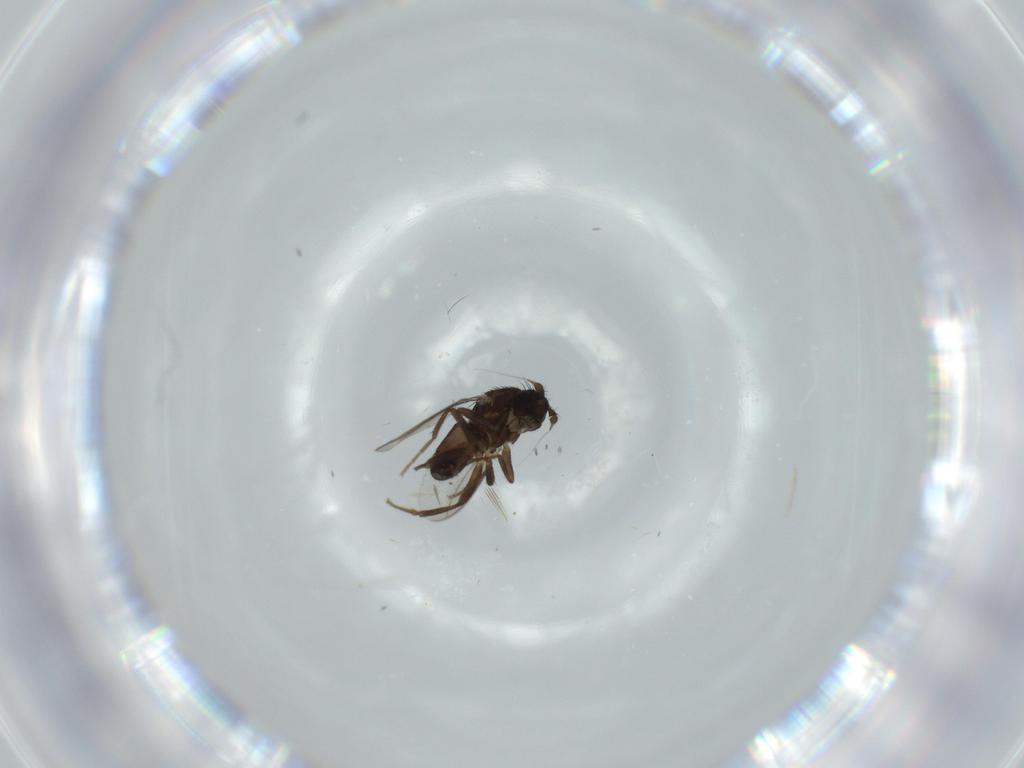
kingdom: Animalia
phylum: Arthropoda
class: Insecta
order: Diptera
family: Sphaeroceridae
